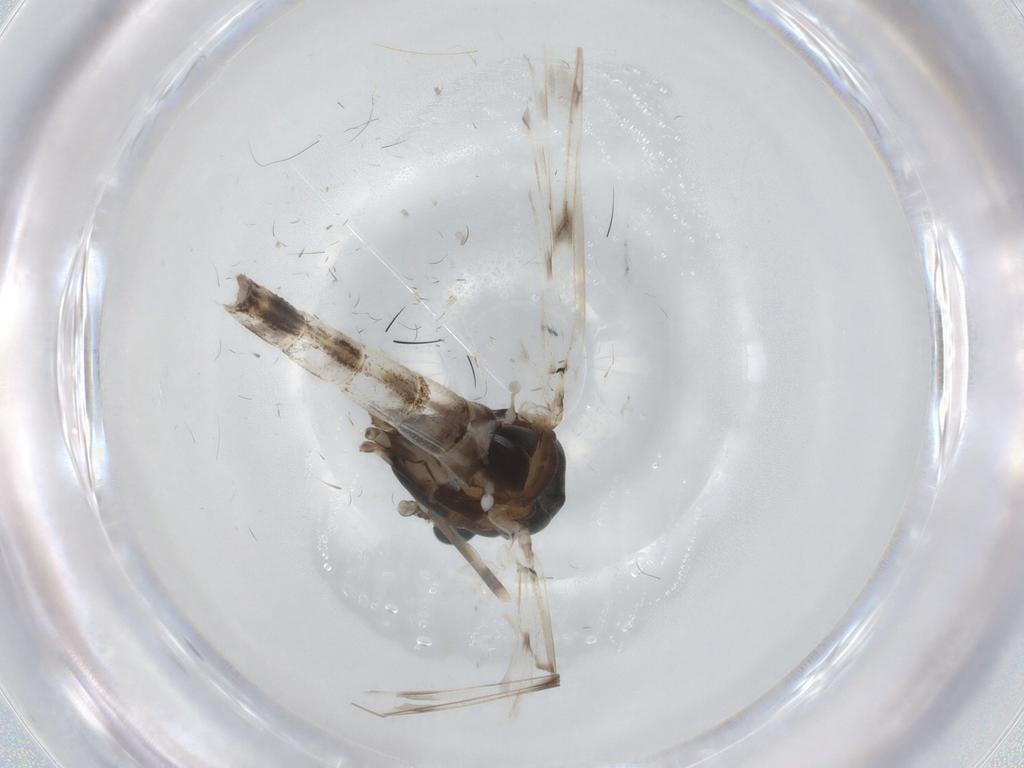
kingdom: Animalia
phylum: Arthropoda
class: Insecta
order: Diptera
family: Chironomidae
